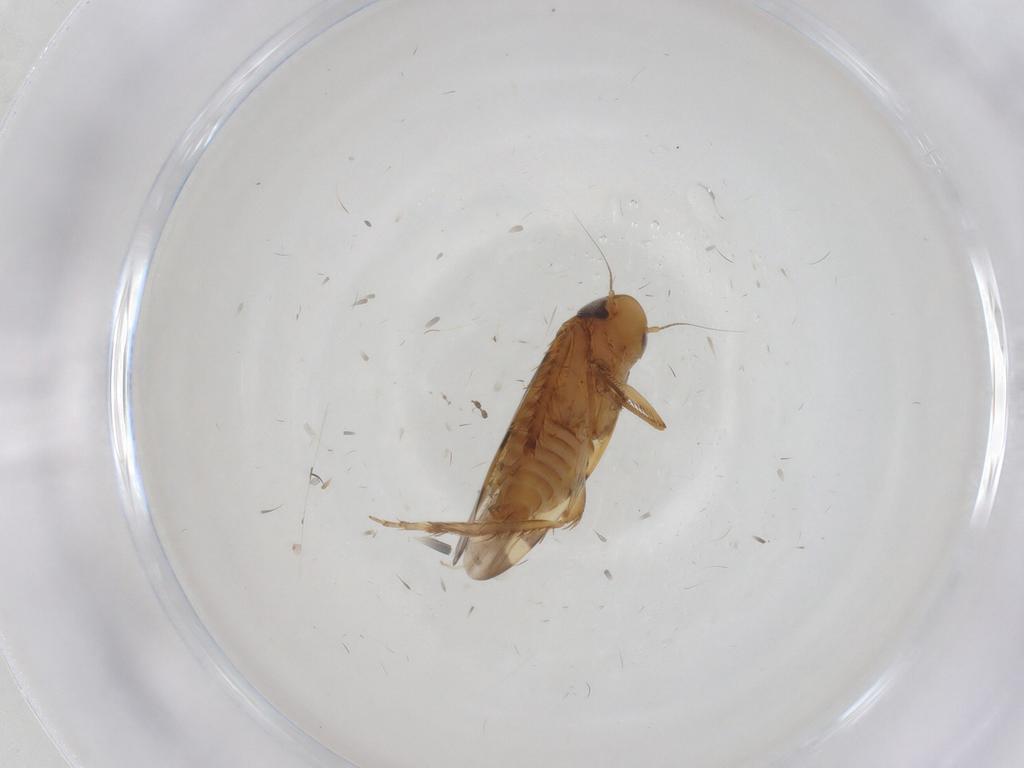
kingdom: Animalia
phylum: Arthropoda
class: Insecta
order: Hemiptera
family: Cicadellidae
